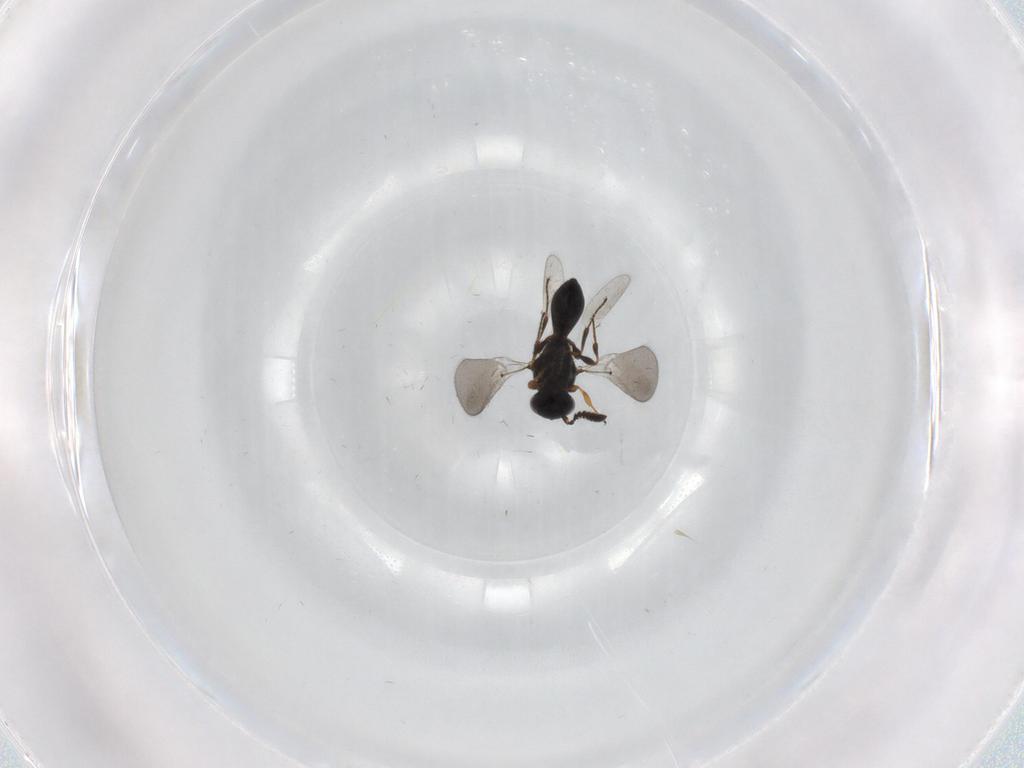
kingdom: Animalia
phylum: Arthropoda
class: Insecta
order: Hymenoptera
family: Platygastridae
